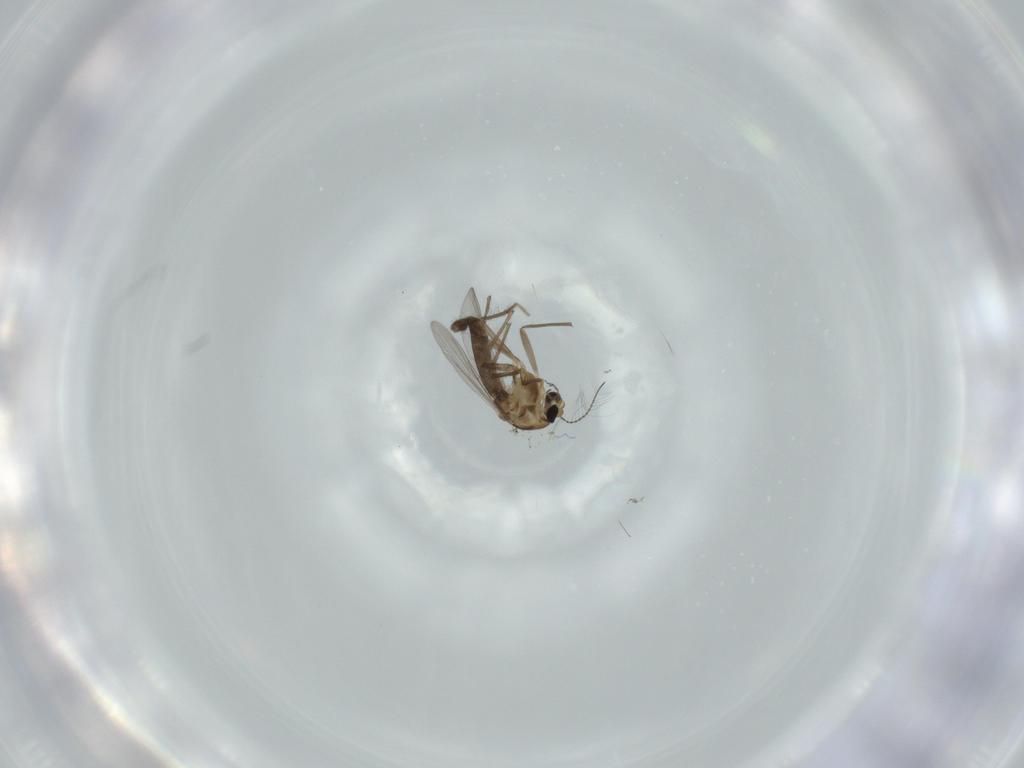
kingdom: Animalia
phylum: Arthropoda
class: Insecta
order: Diptera
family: Chironomidae
